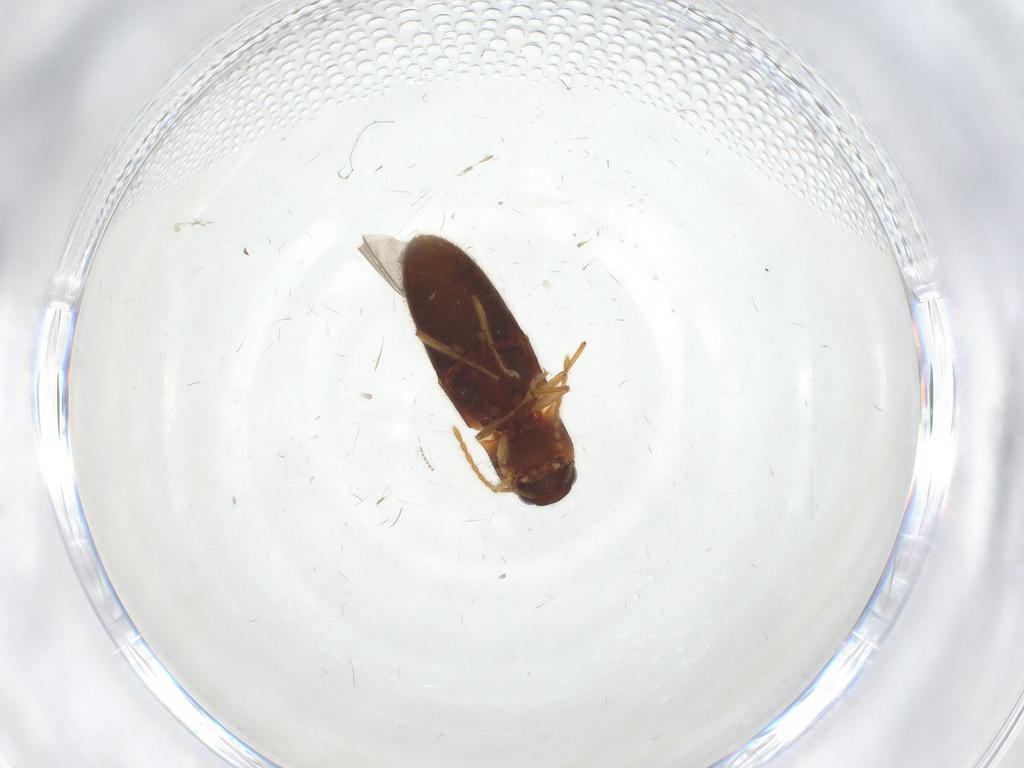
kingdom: Animalia
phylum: Arthropoda
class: Insecta
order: Coleoptera
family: Elateridae
